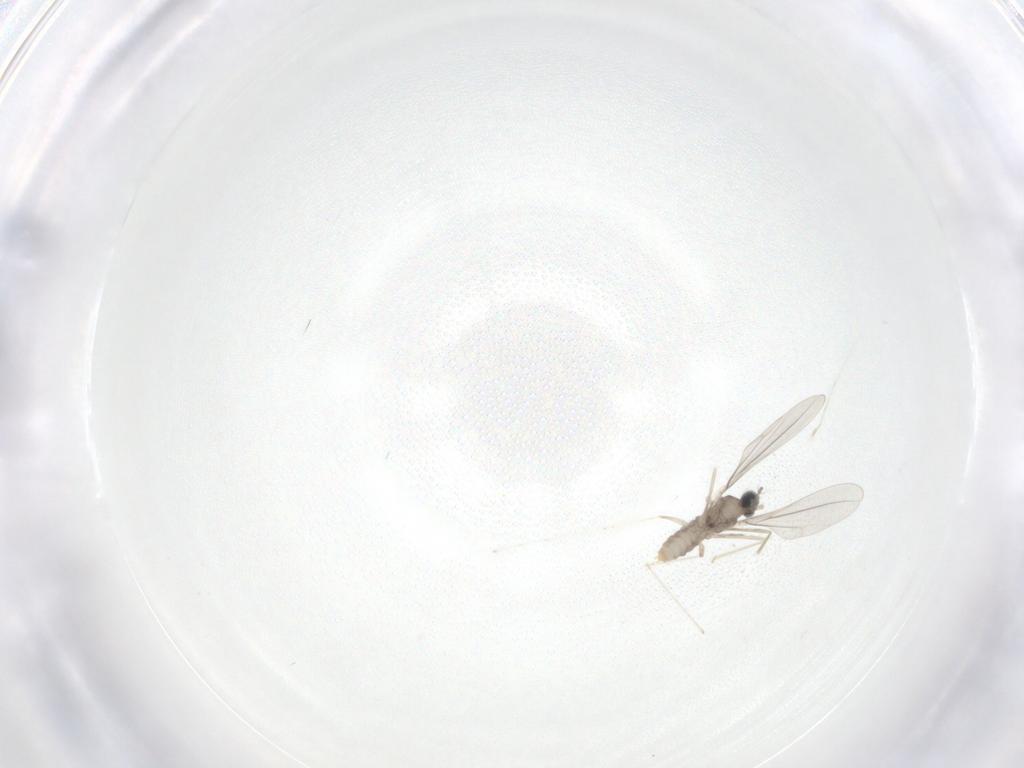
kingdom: Animalia
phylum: Arthropoda
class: Insecta
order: Diptera
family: Cecidomyiidae
